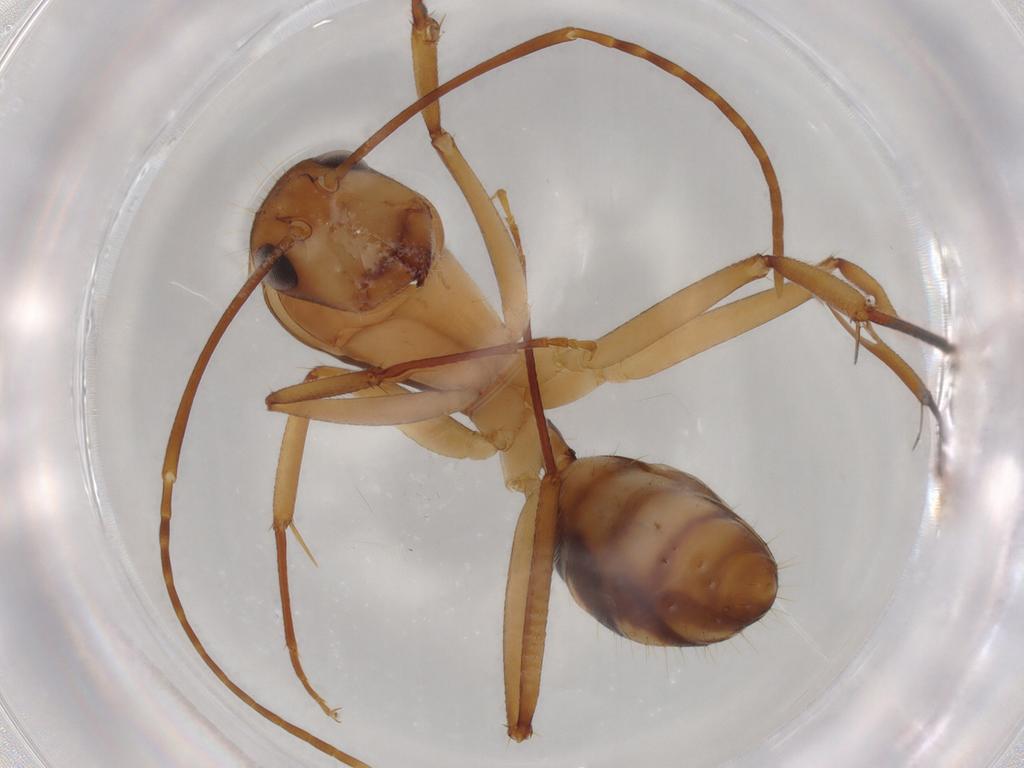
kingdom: Animalia
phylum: Arthropoda
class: Insecta
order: Hymenoptera
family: Formicidae
